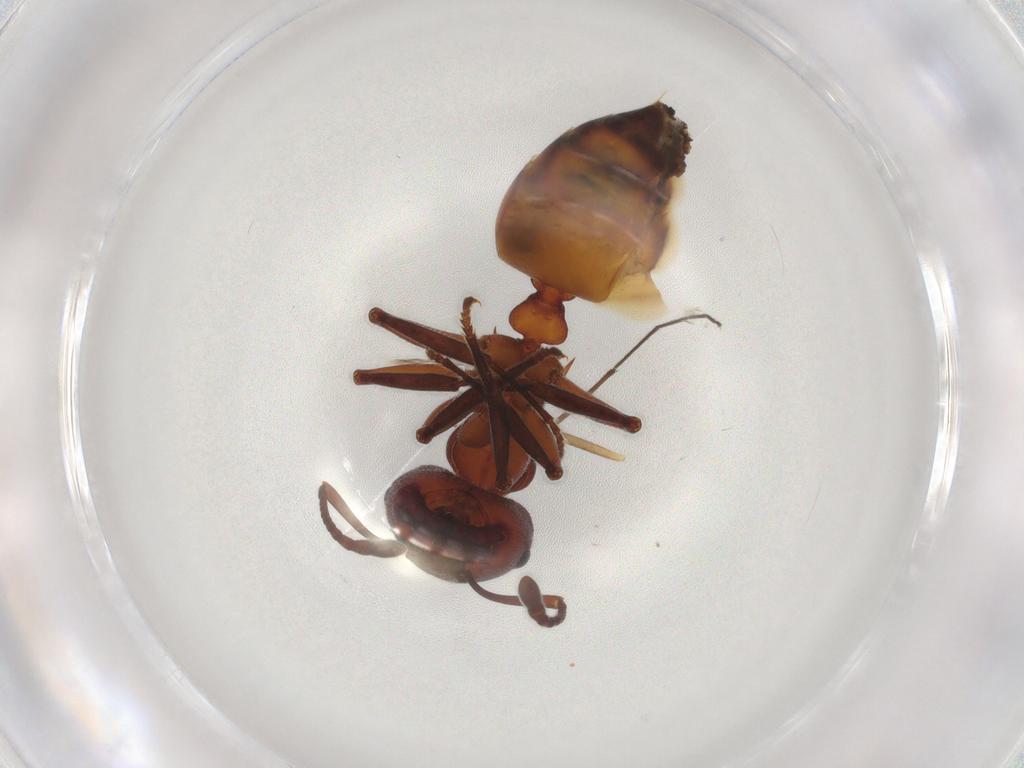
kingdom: Animalia
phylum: Arthropoda
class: Insecta
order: Hymenoptera
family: Formicidae
